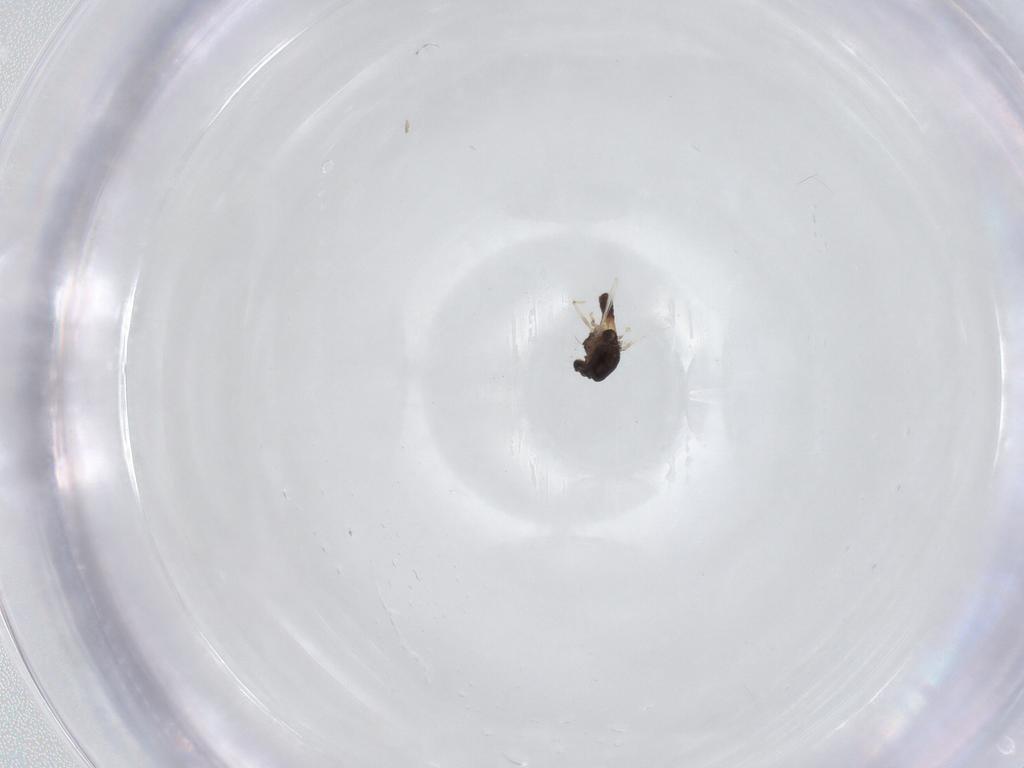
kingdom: Animalia
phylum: Arthropoda
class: Insecta
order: Diptera
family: Chironomidae
